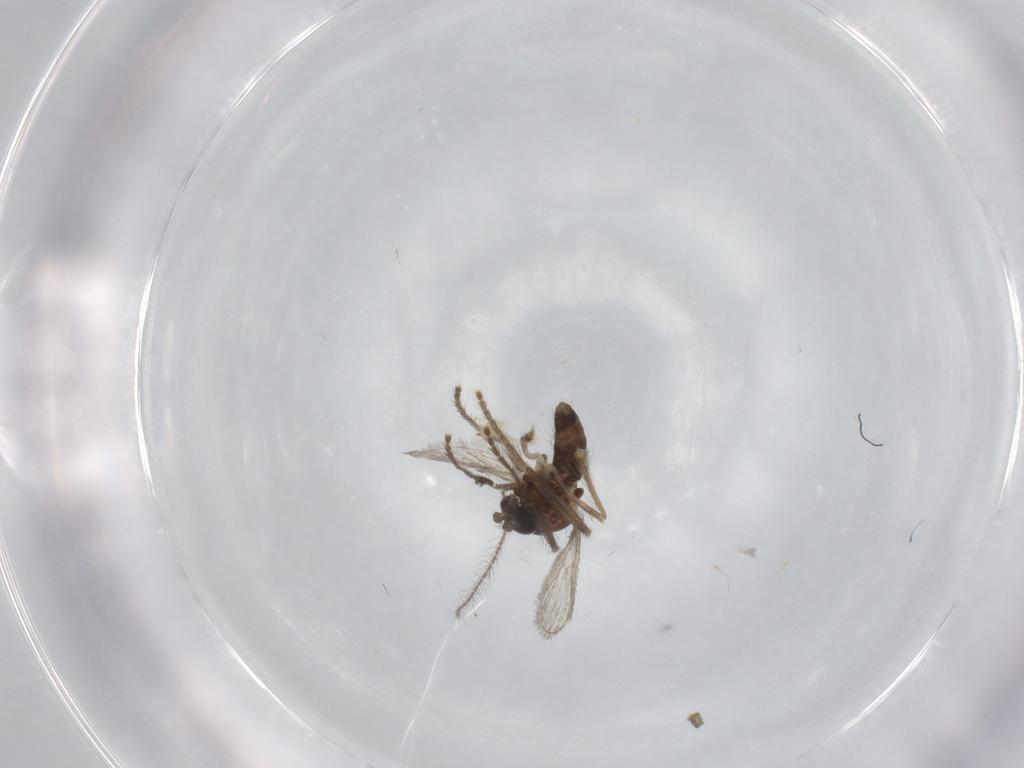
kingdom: Animalia
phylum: Arthropoda
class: Insecta
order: Diptera
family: Corethrellidae
